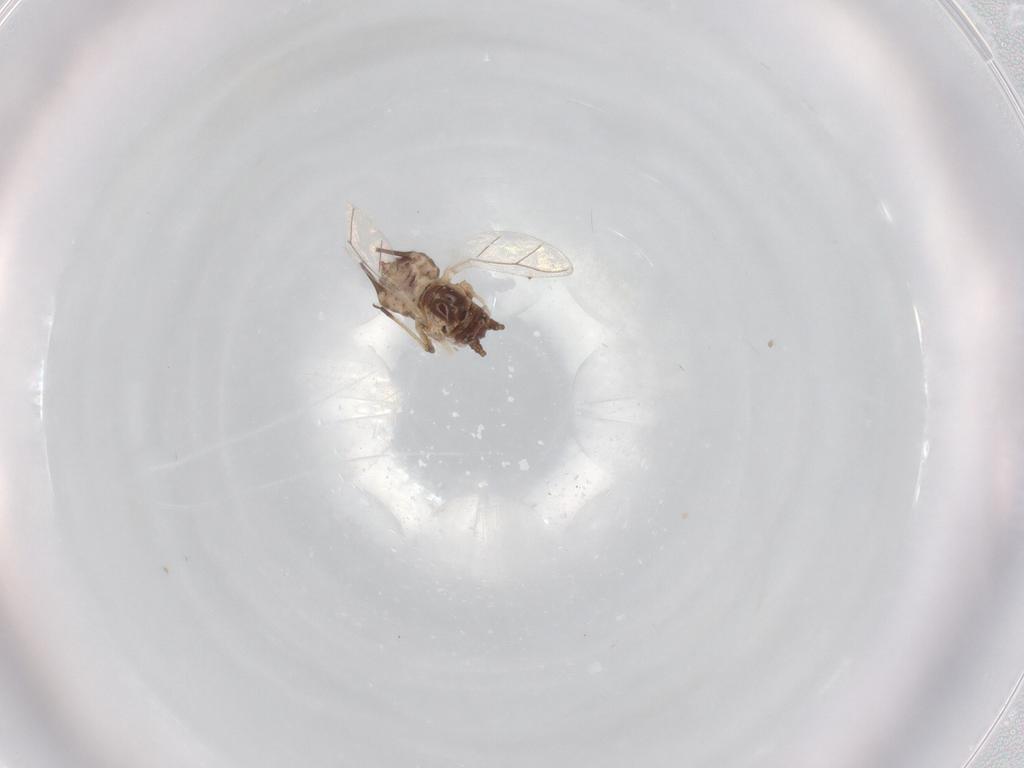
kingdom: Animalia
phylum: Arthropoda
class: Insecta
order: Hemiptera
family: Aphididae
